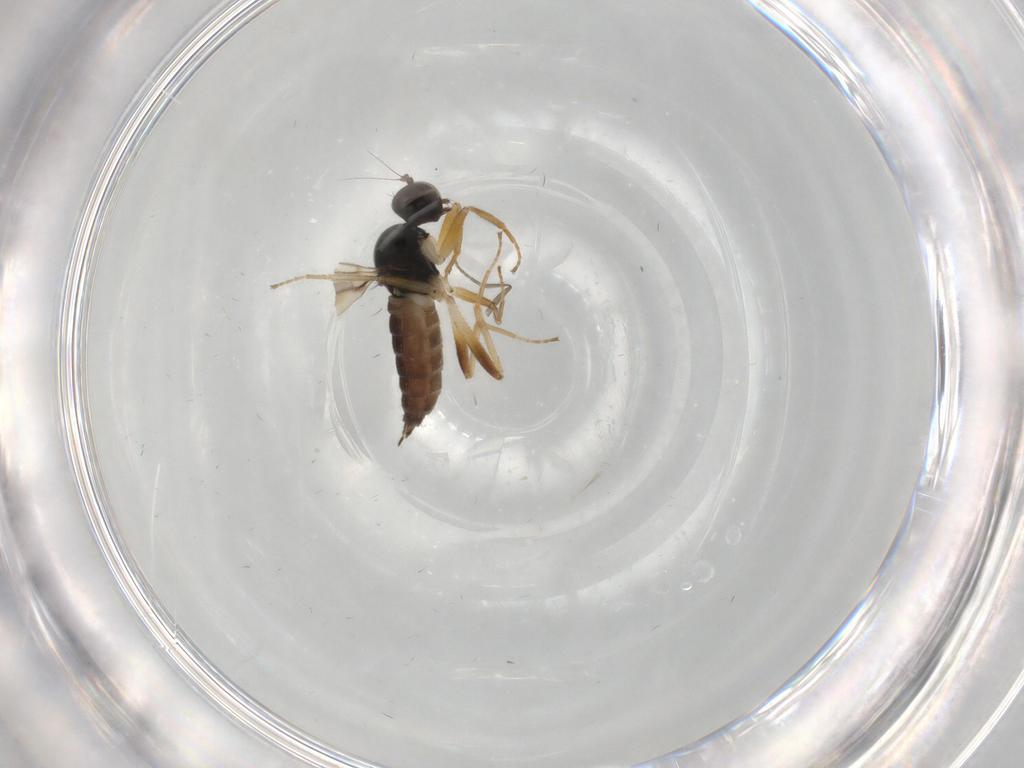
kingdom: Animalia
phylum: Arthropoda
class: Insecta
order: Diptera
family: Hybotidae
